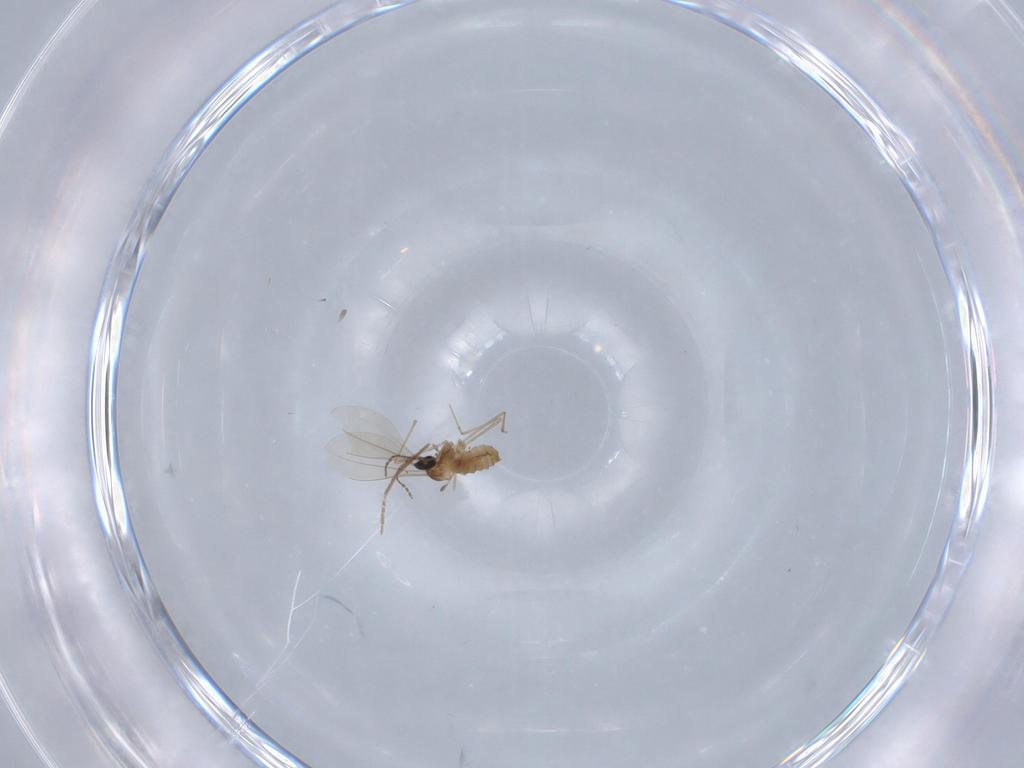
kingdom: Animalia
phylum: Arthropoda
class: Insecta
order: Diptera
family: Cecidomyiidae
